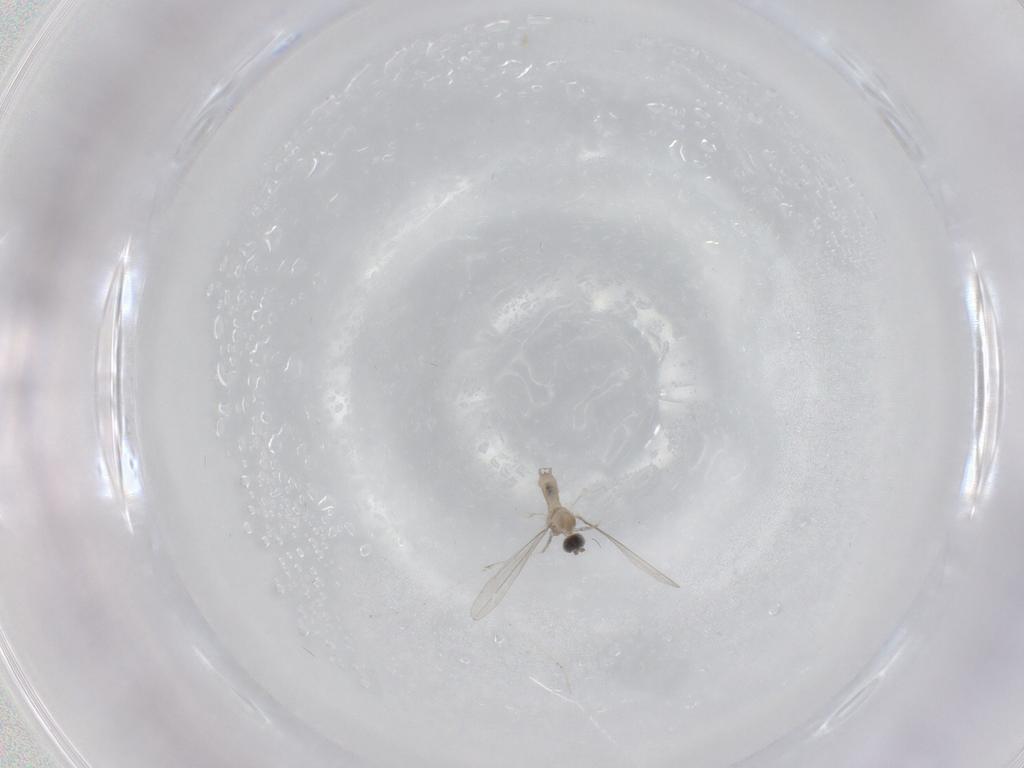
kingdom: Animalia
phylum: Arthropoda
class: Insecta
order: Diptera
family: Cecidomyiidae
